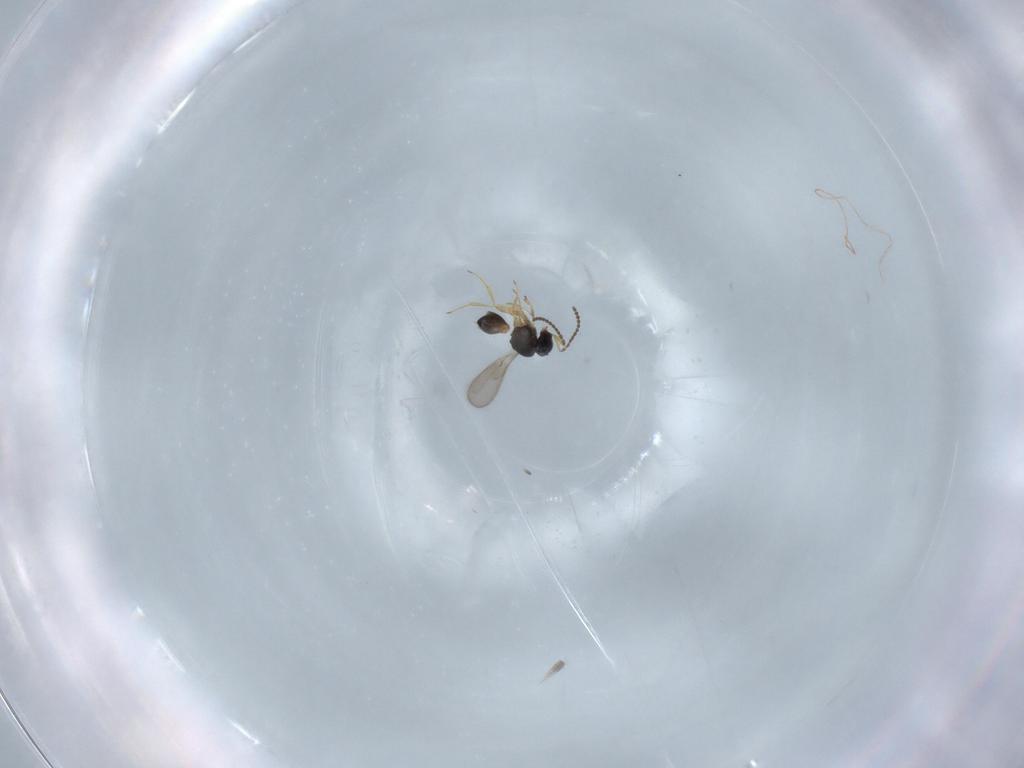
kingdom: Animalia
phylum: Arthropoda
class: Insecta
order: Hymenoptera
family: Scelionidae
